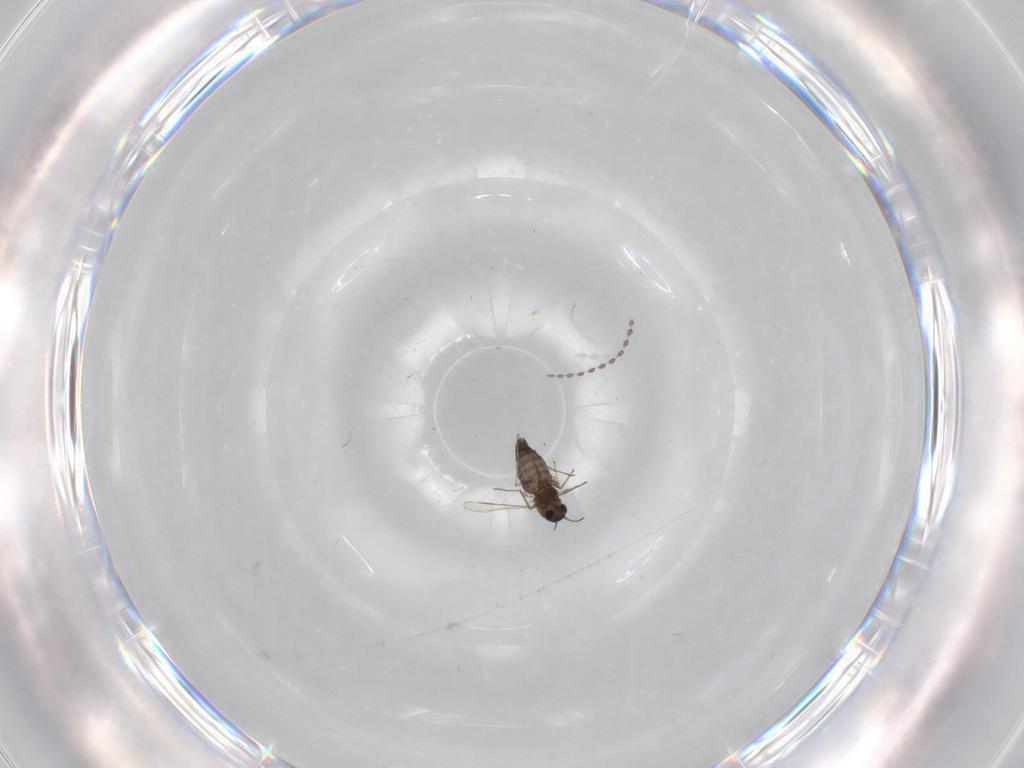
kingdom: Animalia
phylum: Arthropoda
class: Insecta
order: Diptera
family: Chironomidae
